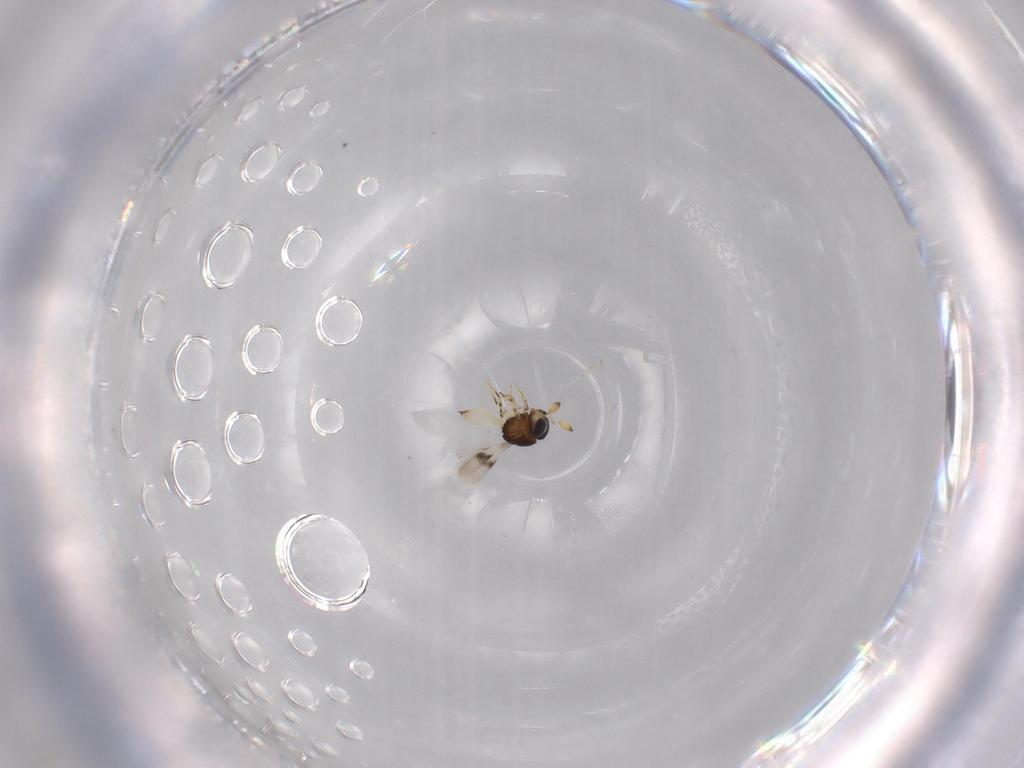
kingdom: Animalia
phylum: Arthropoda
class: Insecta
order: Hymenoptera
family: Scelionidae
